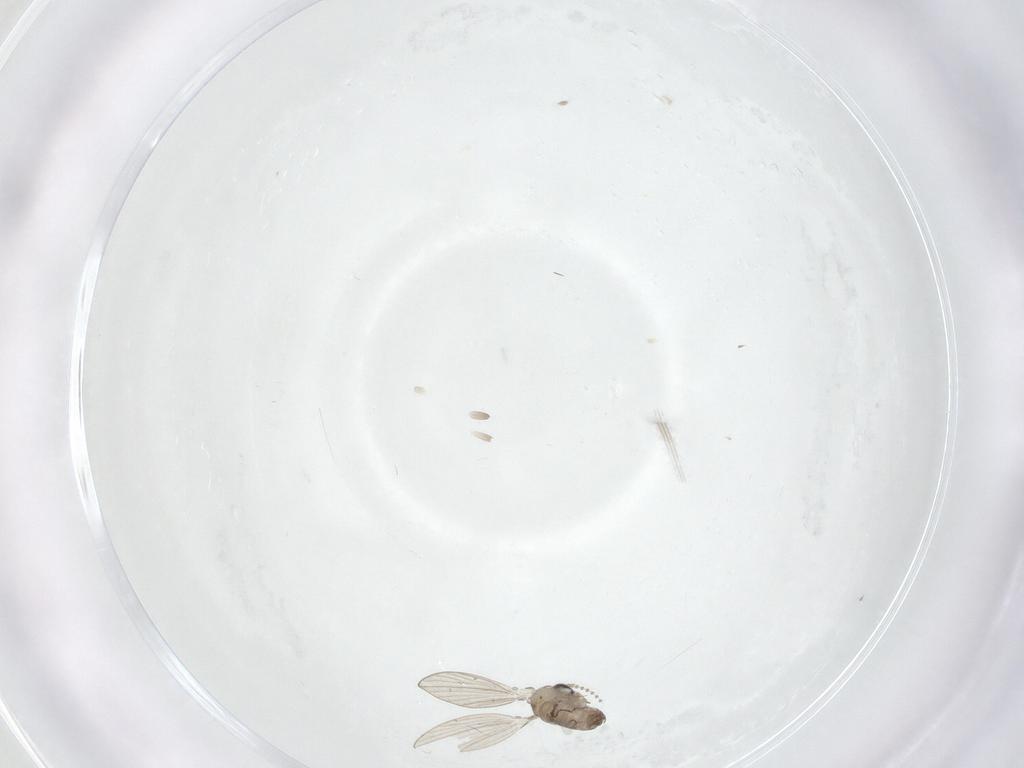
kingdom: Animalia
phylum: Arthropoda
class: Insecta
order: Diptera
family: Psychodidae
